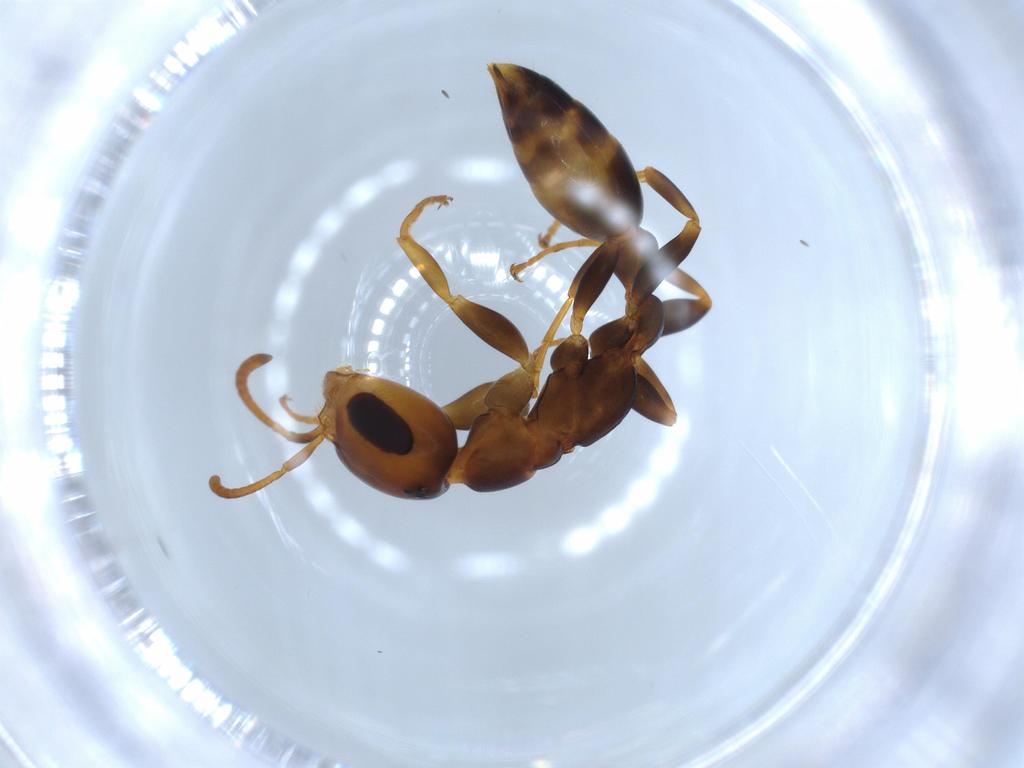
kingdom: Animalia
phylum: Arthropoda
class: Insecta
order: Hymenoptera
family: Formicidae
